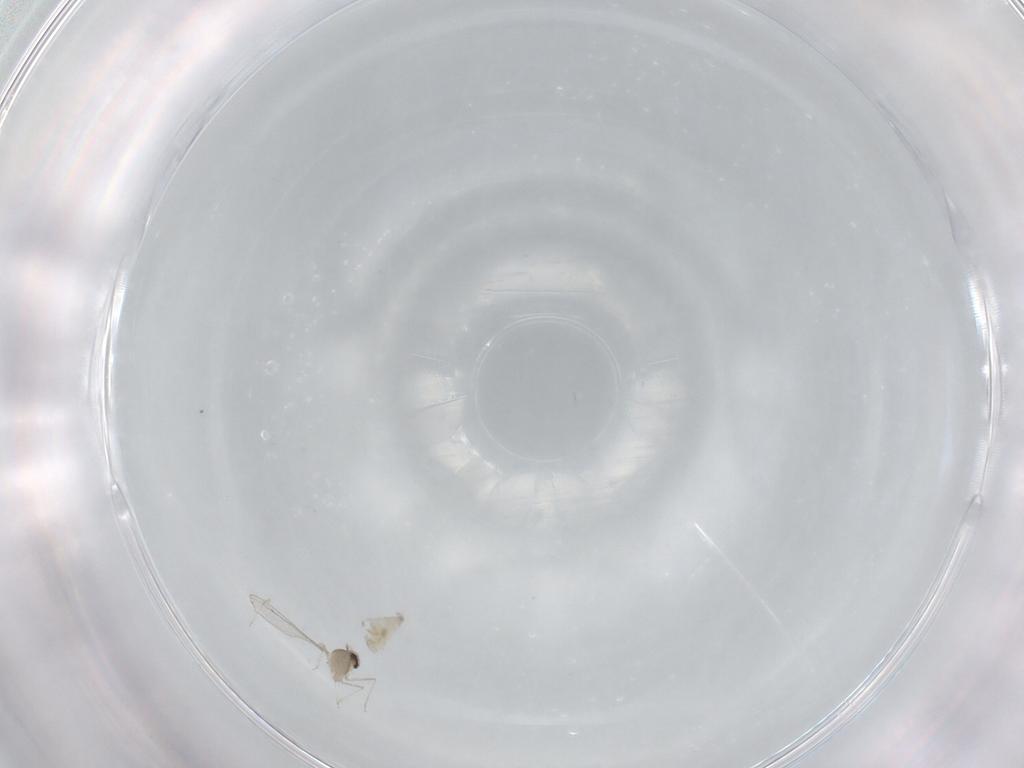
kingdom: Animalia
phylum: Arthropoda
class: Insecta
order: Diptera
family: Cecidomyiidae
